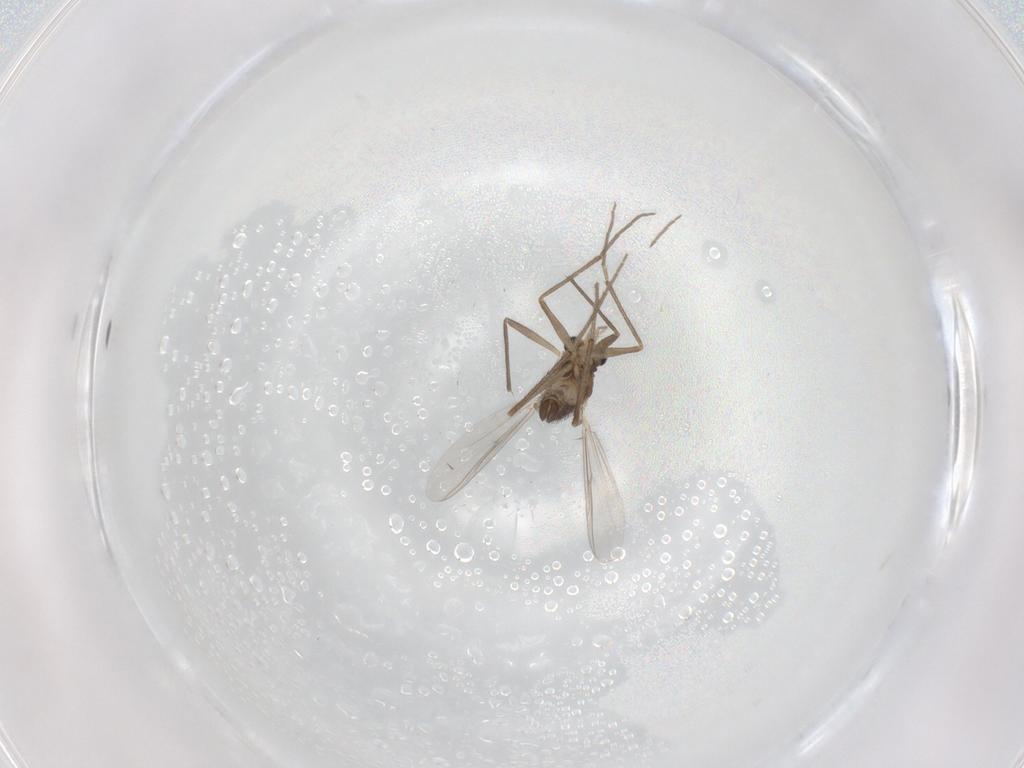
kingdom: Animalia
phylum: Arthropoda
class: Insecta
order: Diptera
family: Chironomidae
